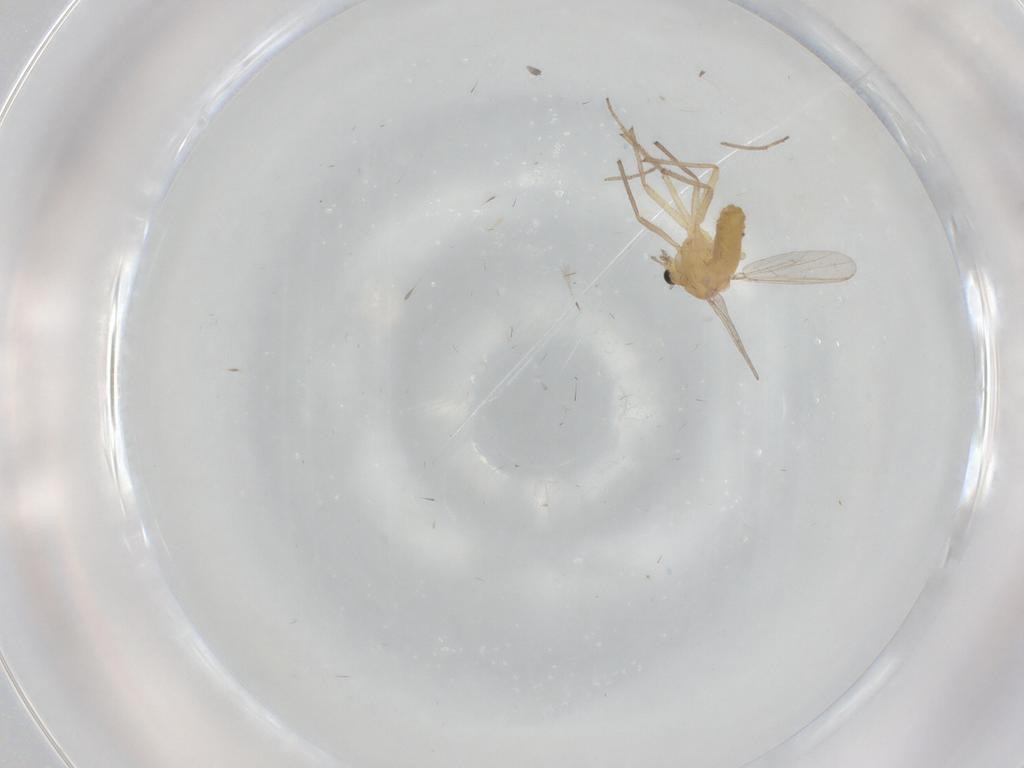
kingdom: Animalia
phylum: Arthropoda
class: Insecta
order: Diptera
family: Chironomidae
